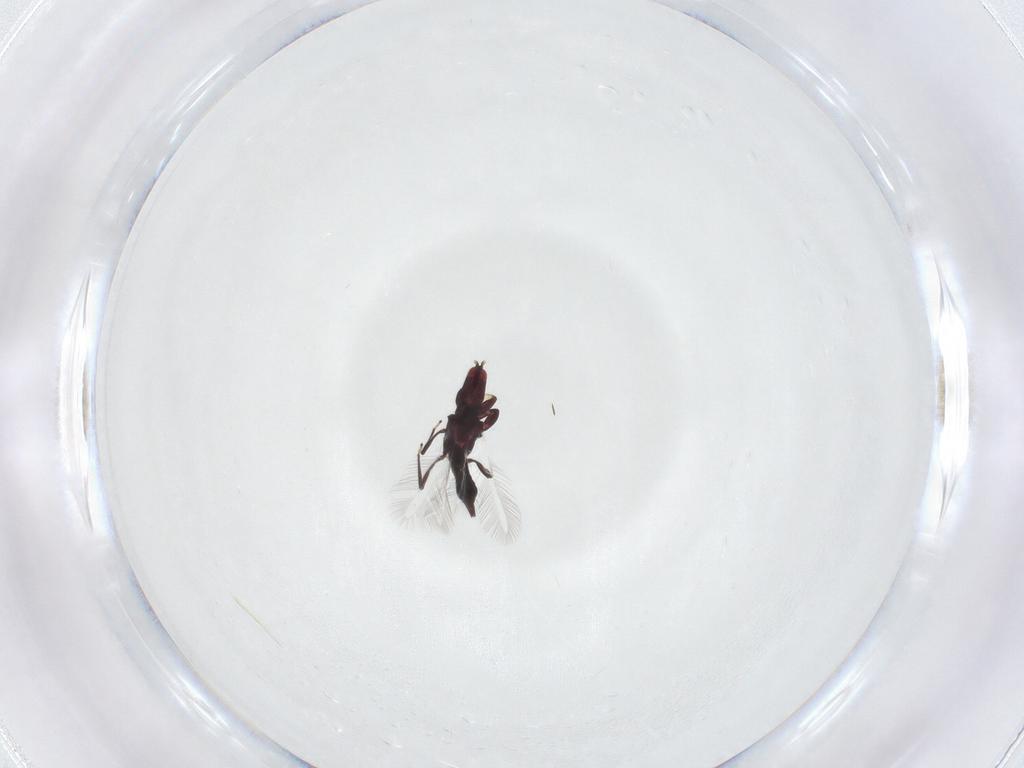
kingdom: Animalia
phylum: Arthropoda
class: Insecta
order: Thysanoptera
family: Phlaeothripidae
